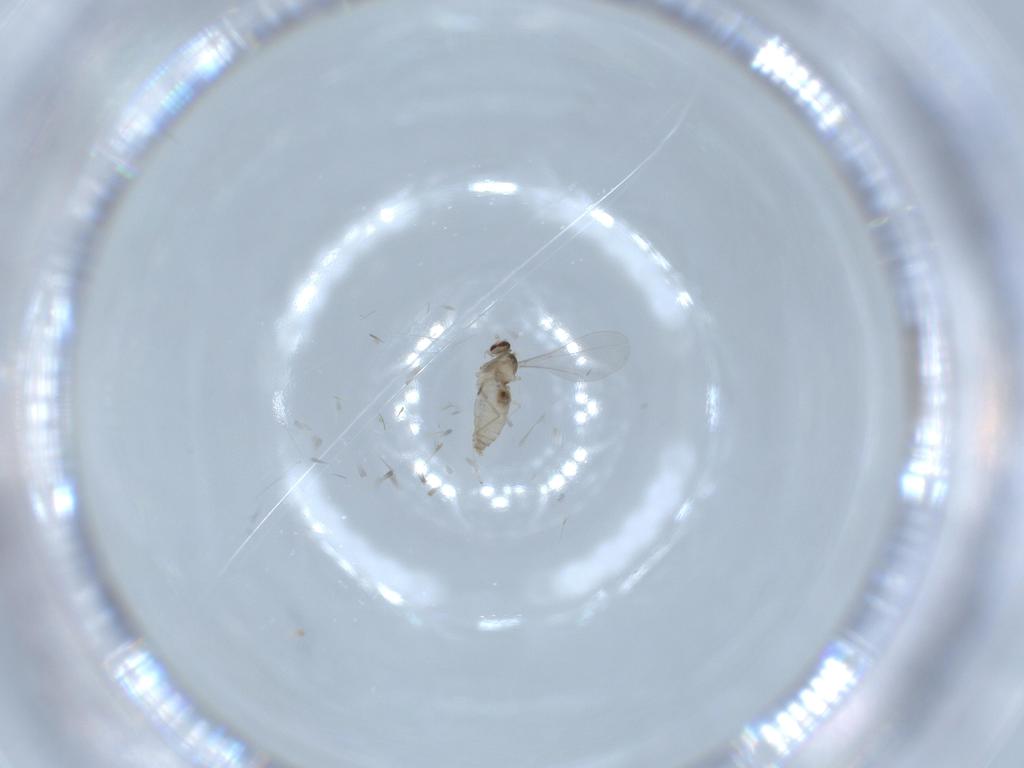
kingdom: Animalia
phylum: Arthropoda
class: Insecta
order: Diptera
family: Cecidomyiidae
